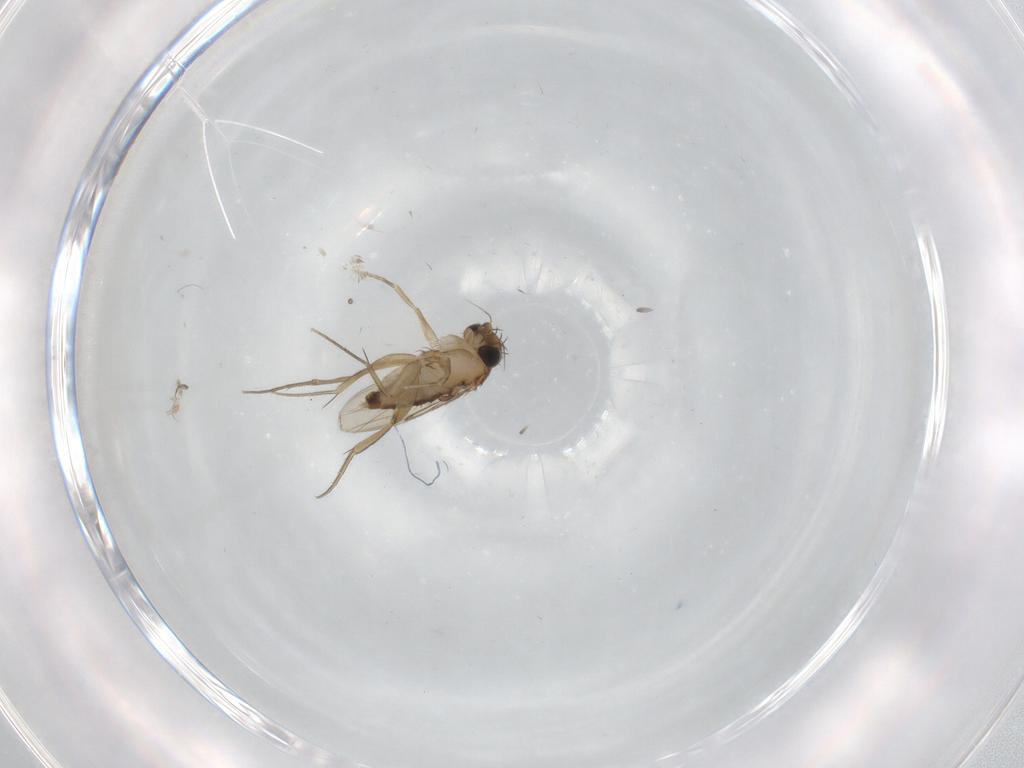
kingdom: Animalia
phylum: Arthropoda
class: Insecta
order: Diptera
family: Phoridae
